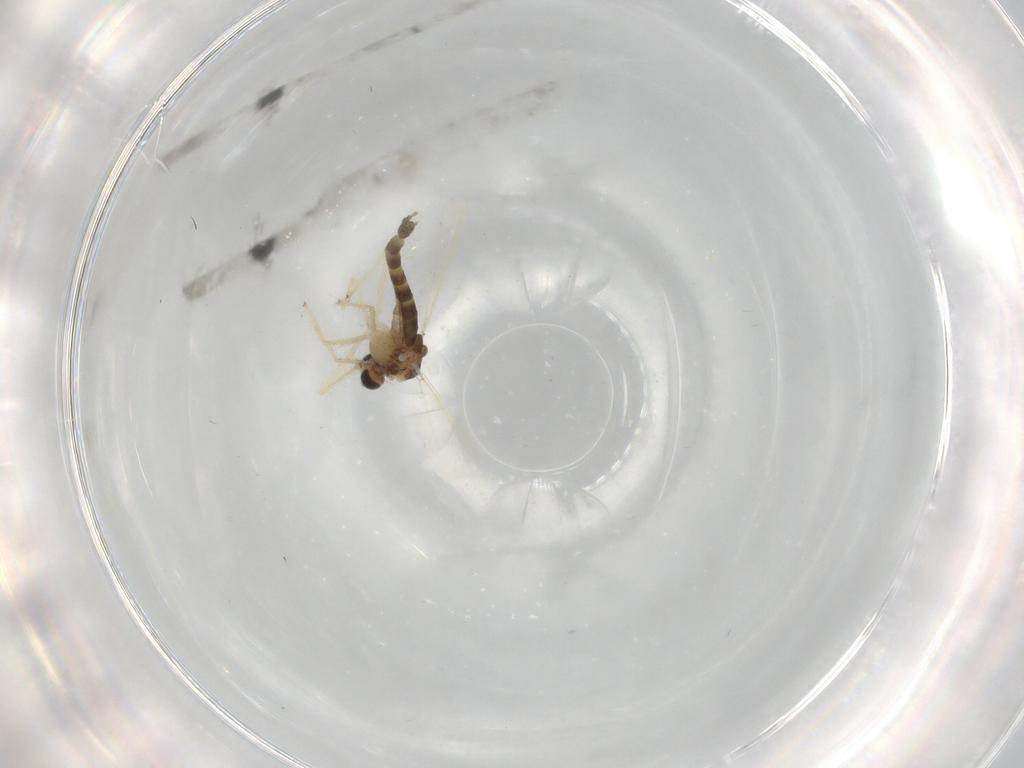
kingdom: Animalia
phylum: Arthropoda
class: Insecta
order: Diptera
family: Chironomidae
